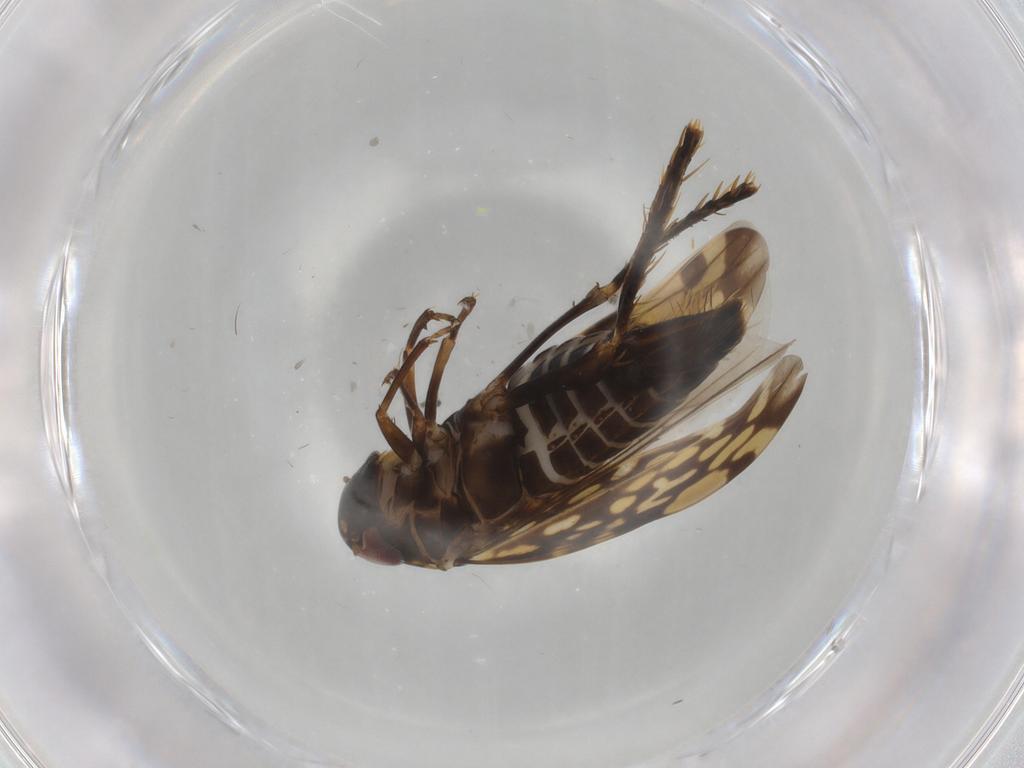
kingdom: Animalia
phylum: Arthropoda
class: Insecta
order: Hemiptera
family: Cicadellidae
